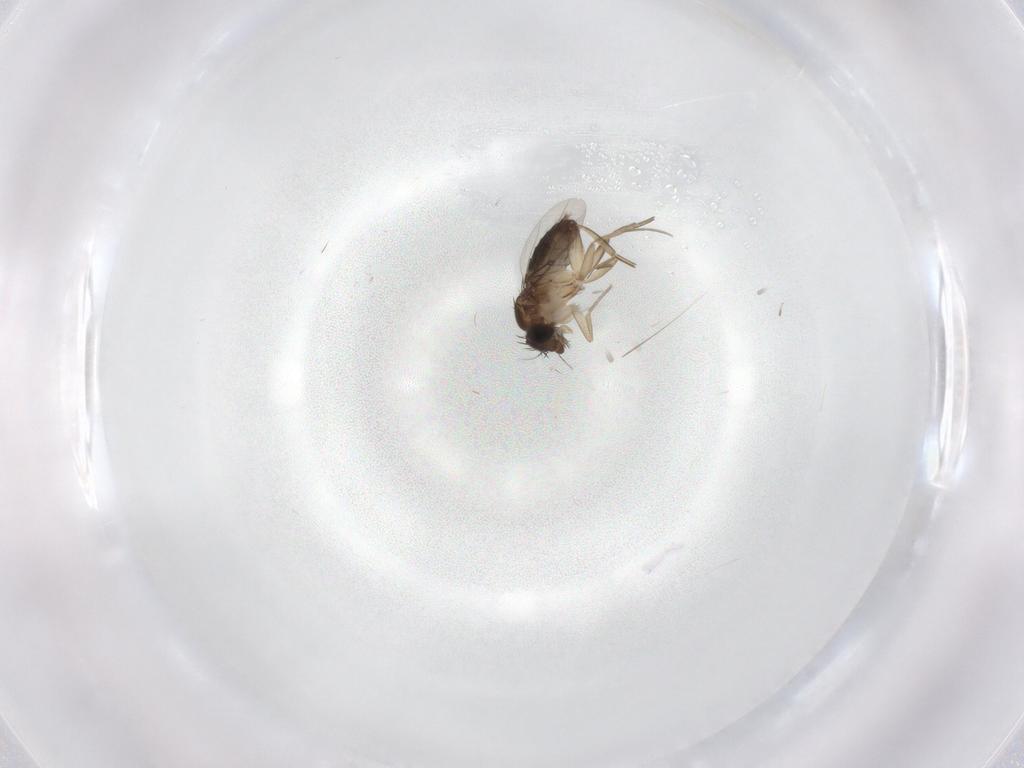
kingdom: Animalia
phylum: Arthropoda
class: Insecta
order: Diptera
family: Phoridae
